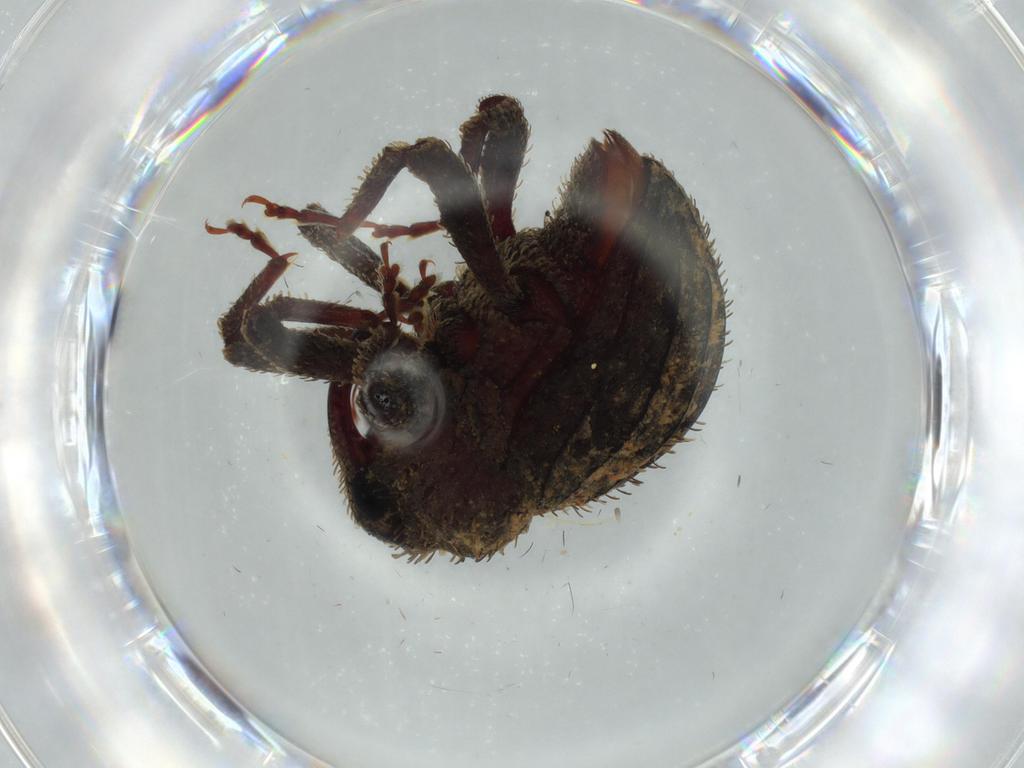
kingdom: Animalia
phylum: Arthropoda
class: Insecta
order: Coleoptera
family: Curculionidae
